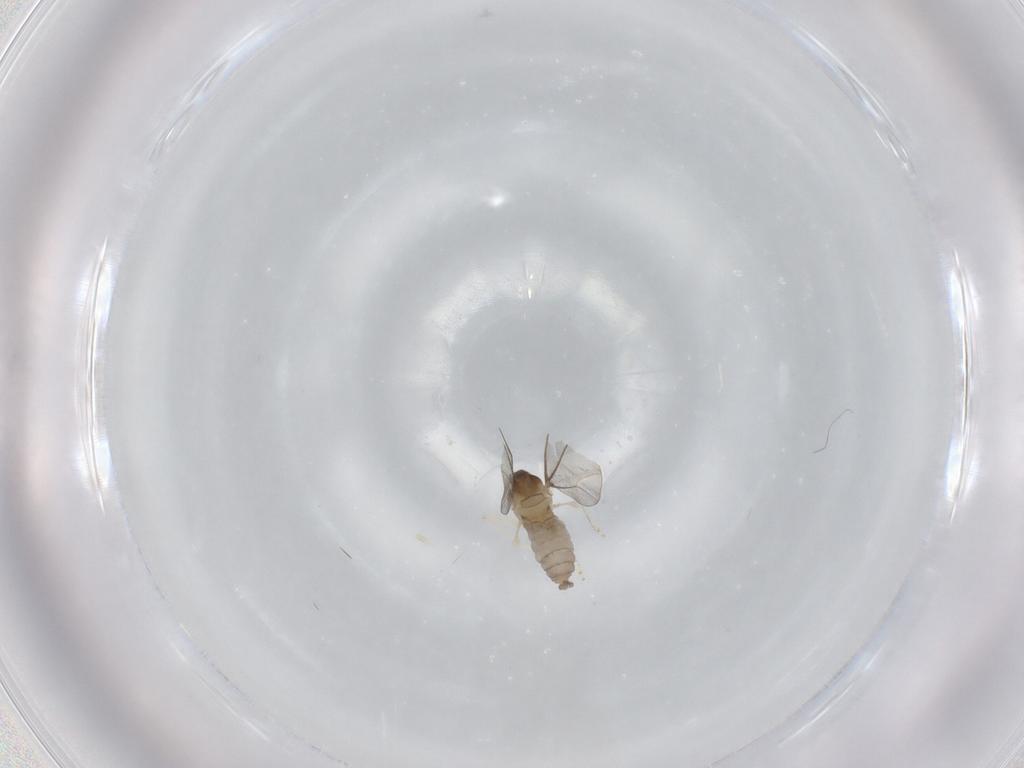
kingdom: Animalia
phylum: Arthropoda
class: Insecta
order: Diptera
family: Cecidomyiidae
